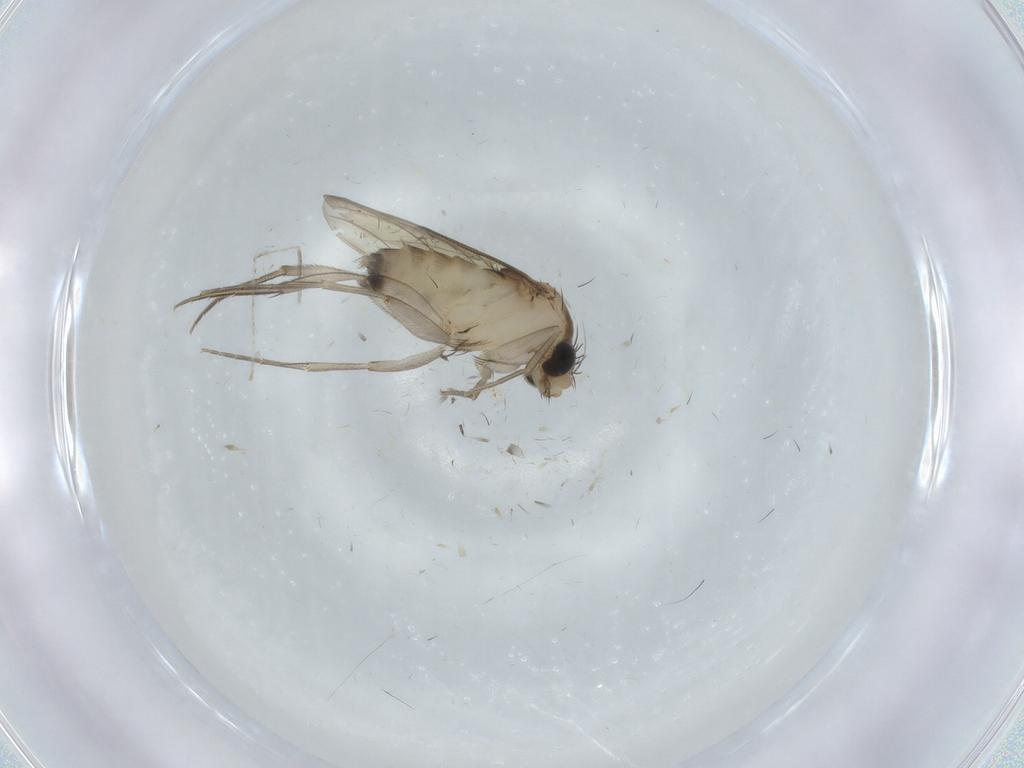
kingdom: Animalia
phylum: Arthropoda
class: Insecta
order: Diptera
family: Phoridae
